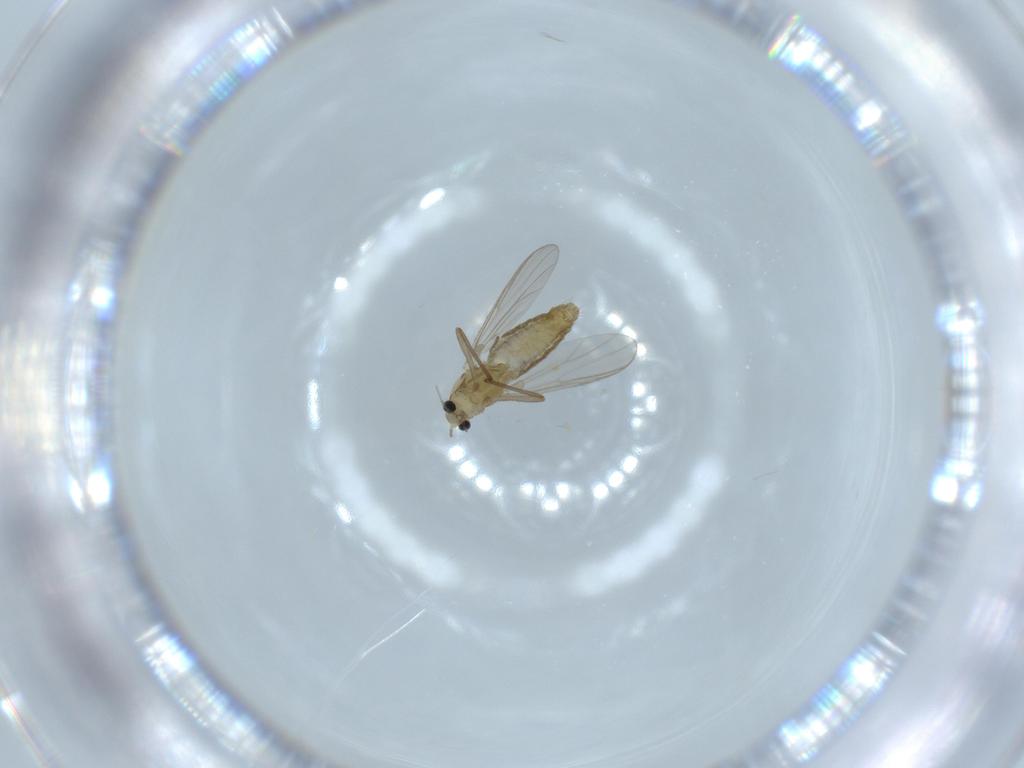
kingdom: Animalia
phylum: Arthropoda
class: Insecta
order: Diptera
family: Chironomidae
